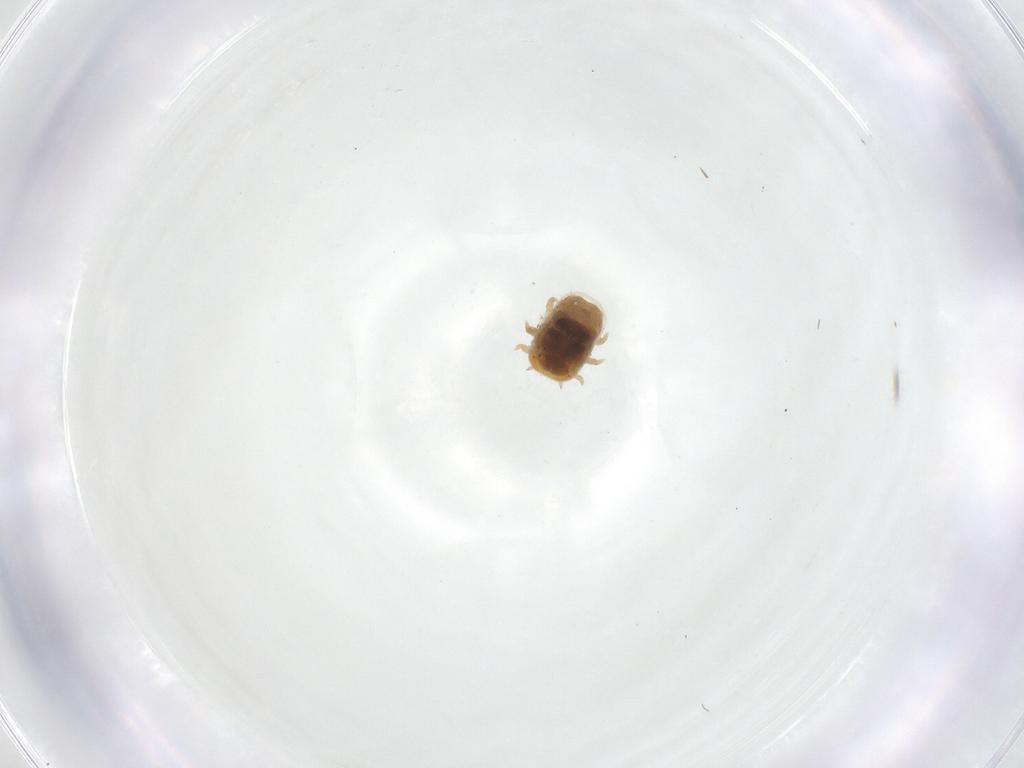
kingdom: Animalia
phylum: Arthropoda
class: Insecta
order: Hemiptera
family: Triozidae
